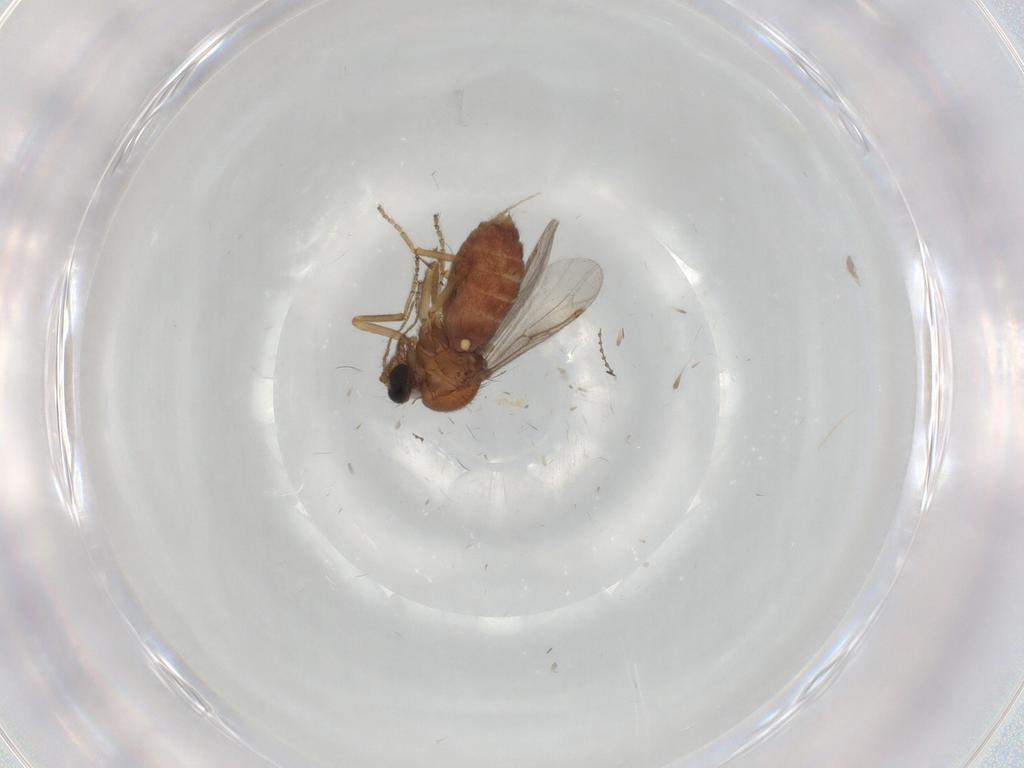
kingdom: Animalia
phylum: Arthropoda
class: Insecta
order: Diptera
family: Ceratopogonidae
